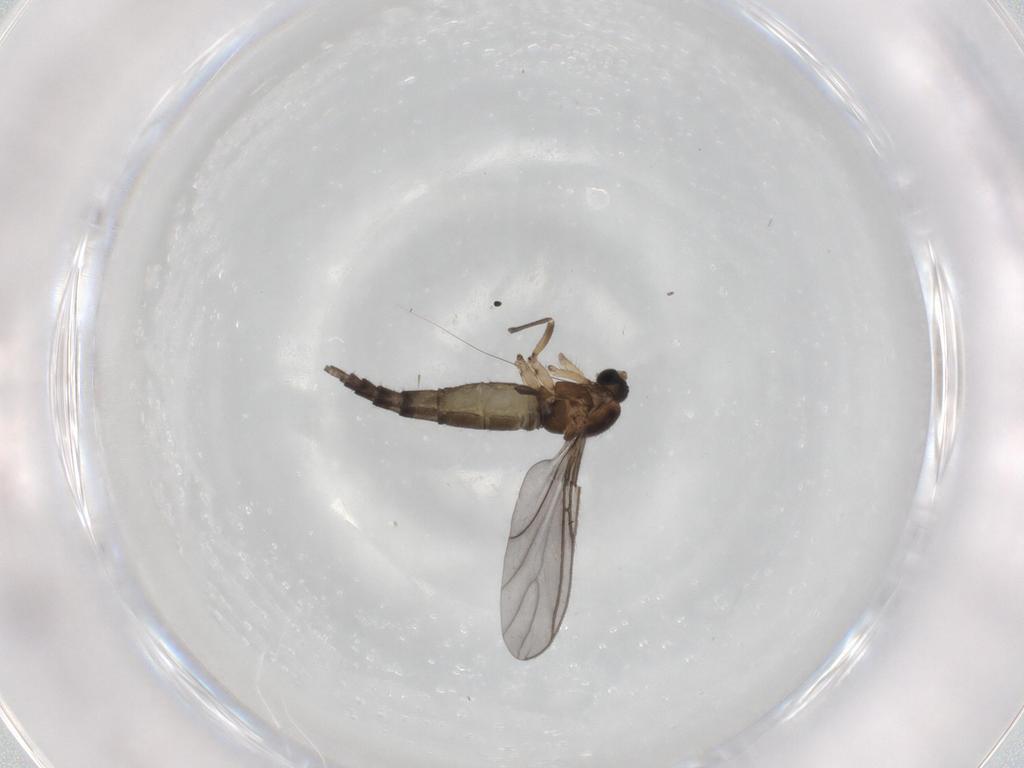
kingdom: Animalia
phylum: Arthropoda
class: Insecta
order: Diptera
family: Sciaridae
